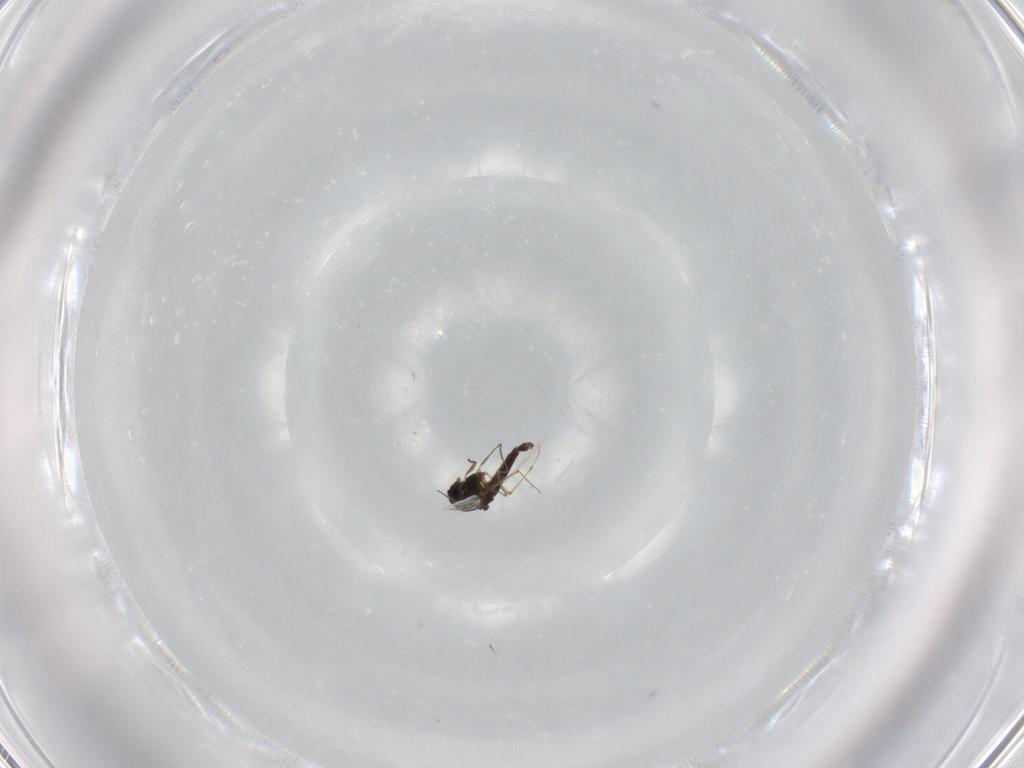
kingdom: Animalia
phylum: Arthropoda
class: Insecta
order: Diptera
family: Chironomidae
